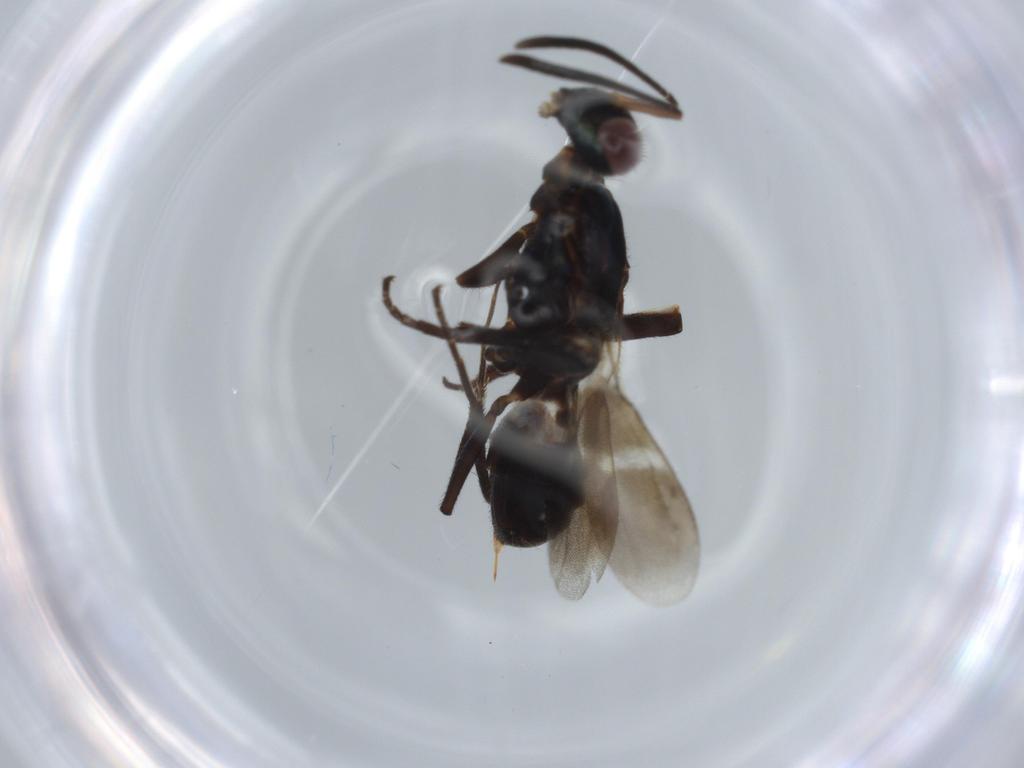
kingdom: Animalia
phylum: Arthropoda
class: Insecta
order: Hymenoptera
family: Bethylidae
